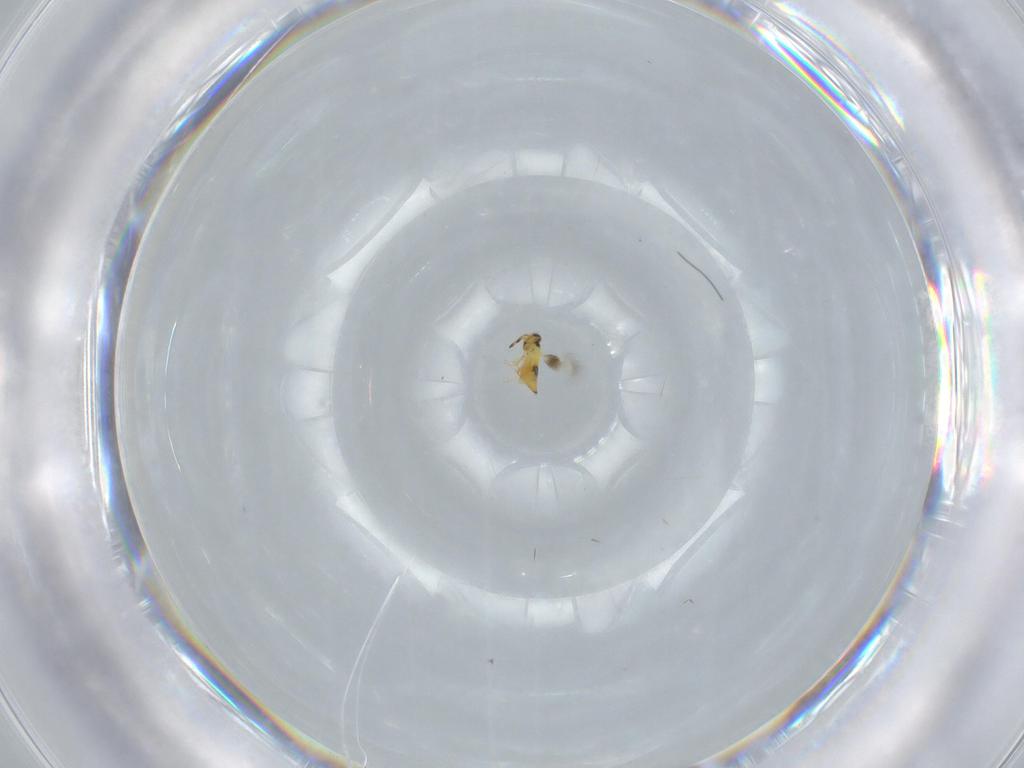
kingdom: Animalia
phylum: Arthropoda
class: Insecta
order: Hymenoptera
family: Signiphoridae
